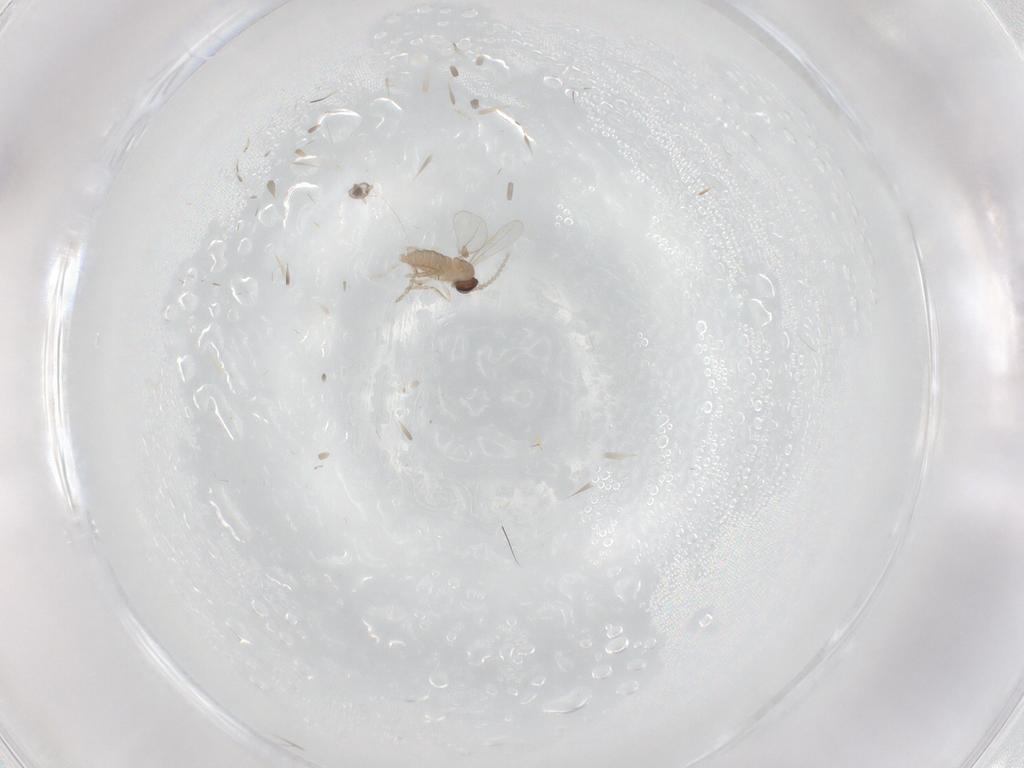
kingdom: Animalia
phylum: Arthropoda
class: Insecta
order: Diptera
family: Cecidomyiidae
